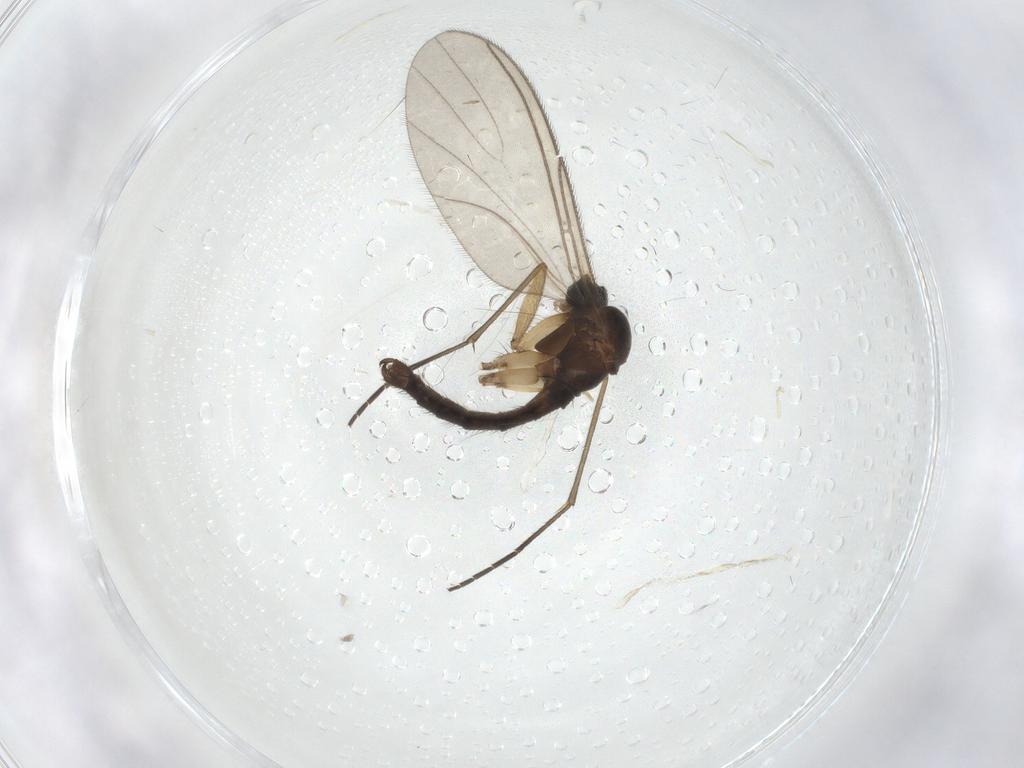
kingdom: Animalia
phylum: Arthropoda
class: Insecta
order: Diptera
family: Sciaridae
